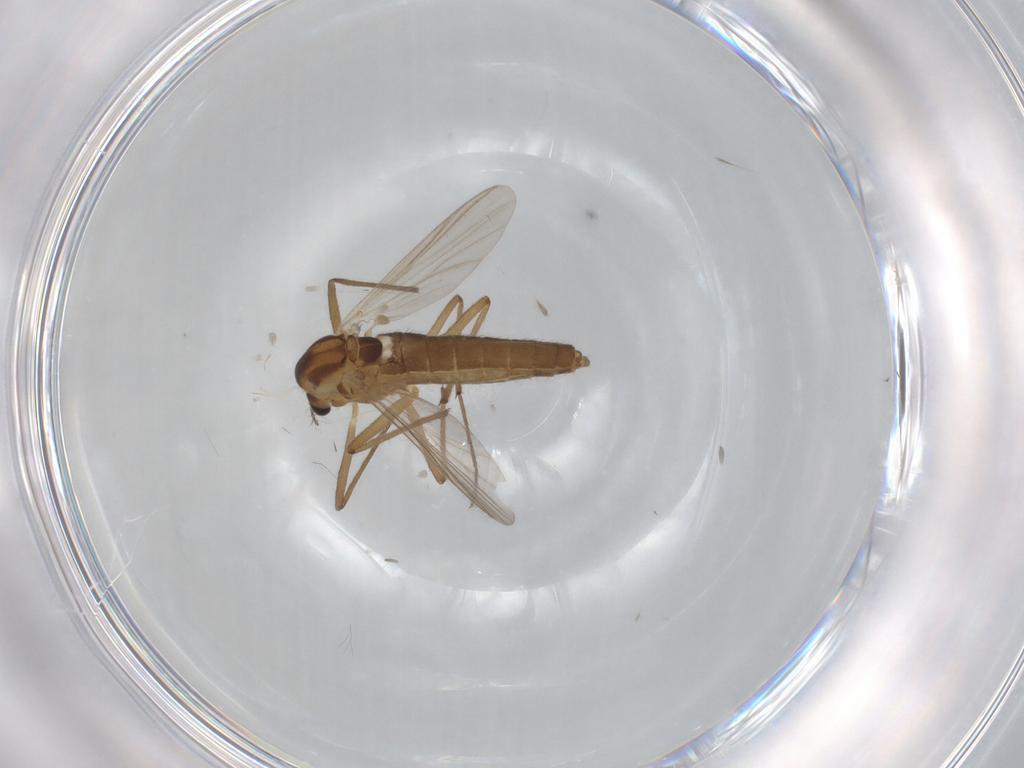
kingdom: Animalia
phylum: Arthropoda
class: Insecta
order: Diptera
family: Chironomidae
